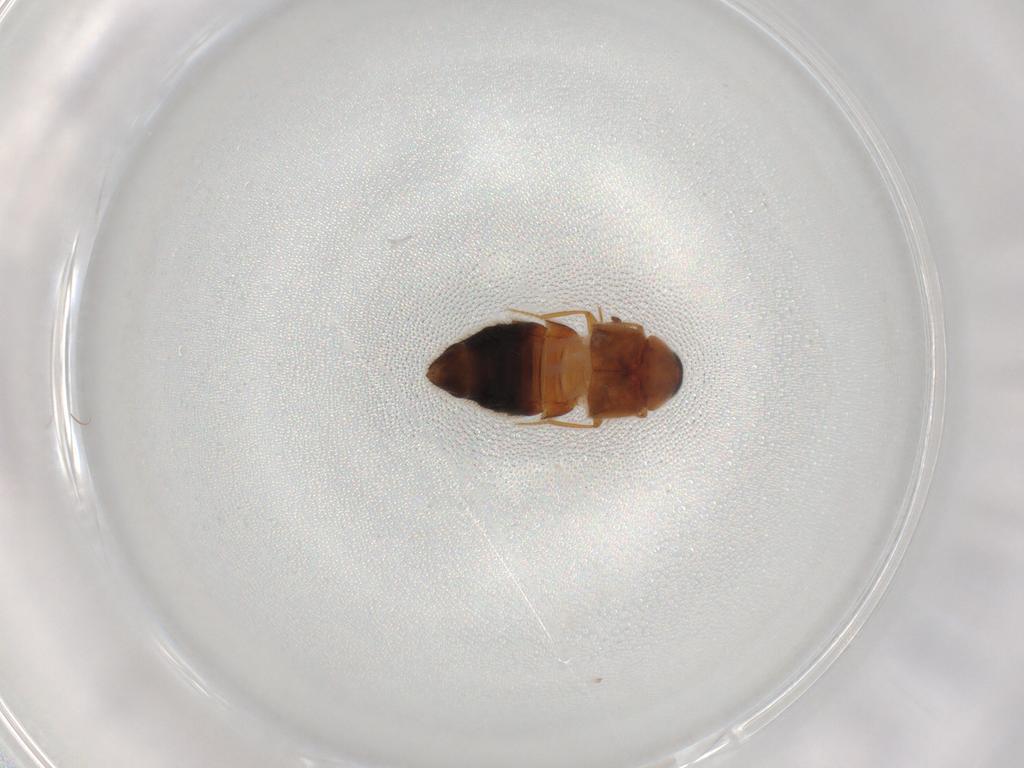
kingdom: Animalia
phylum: Arthropoda
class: Insecta
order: Coleoptera
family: Staphylinidae
